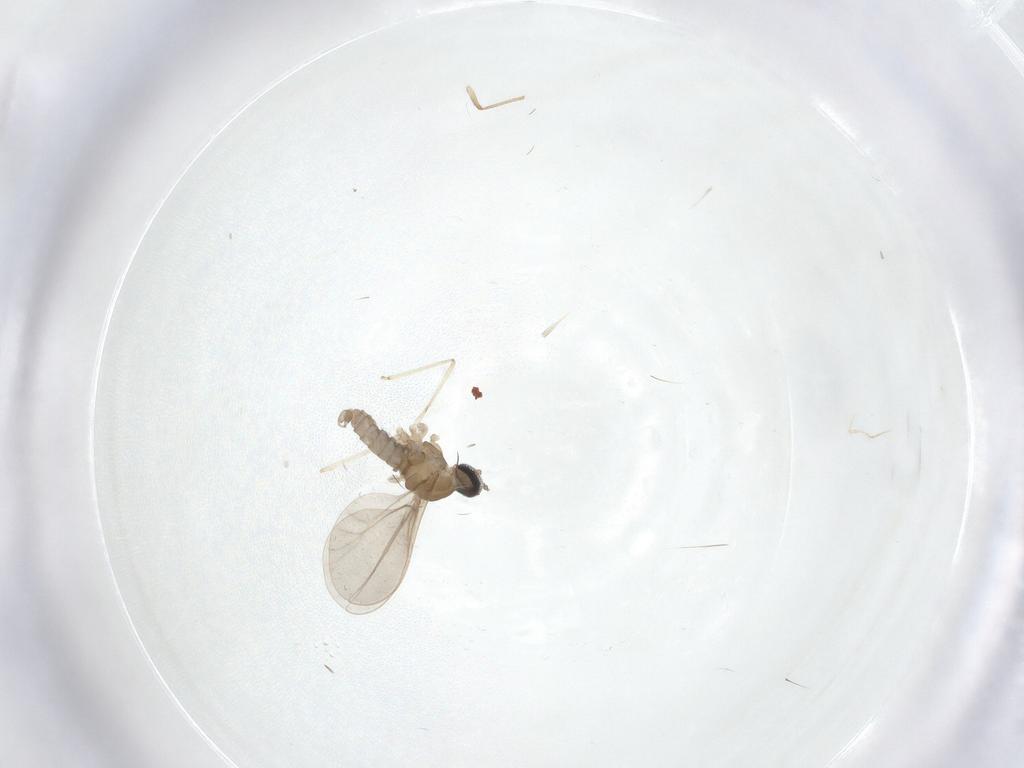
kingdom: Animalia
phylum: Arthropoda
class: Insecta
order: Diptera
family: Chironomidae
